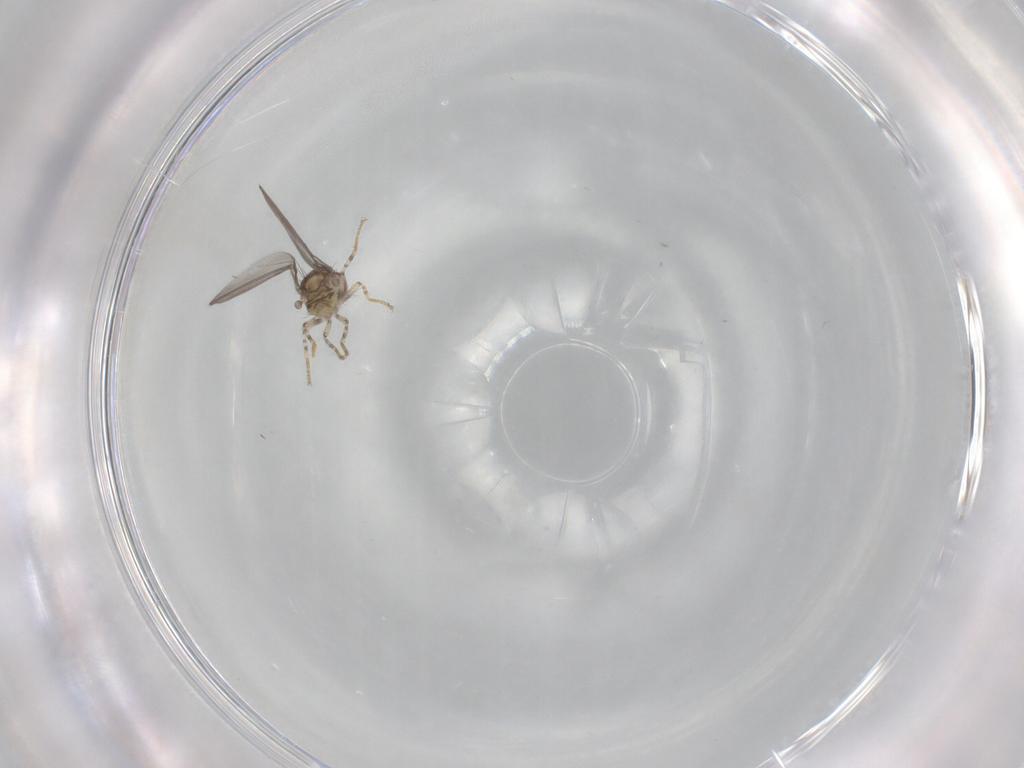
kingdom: Animalia
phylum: Arthropoda
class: Insecta
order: Diptera
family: Asteiidae
